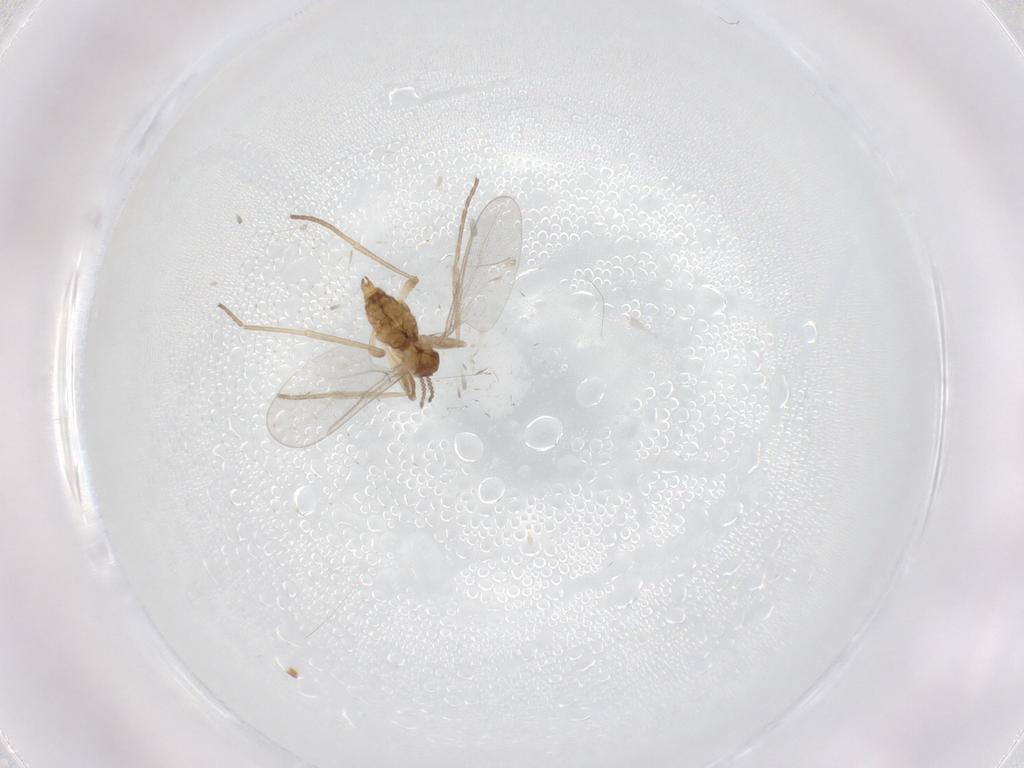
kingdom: Animalia
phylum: Arthropoda
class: Insecta
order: Diptera
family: Cecidomyiidae
